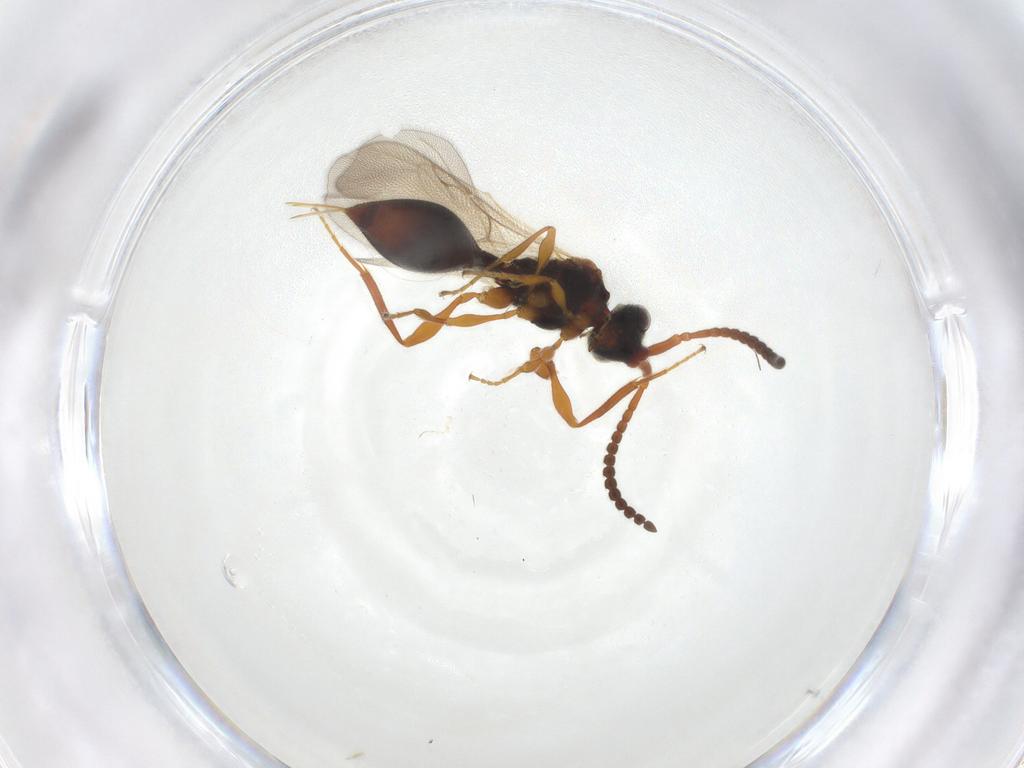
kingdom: Animalia
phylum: Arthropoda
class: Insecta
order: Hymenoptera
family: Diapriidae
